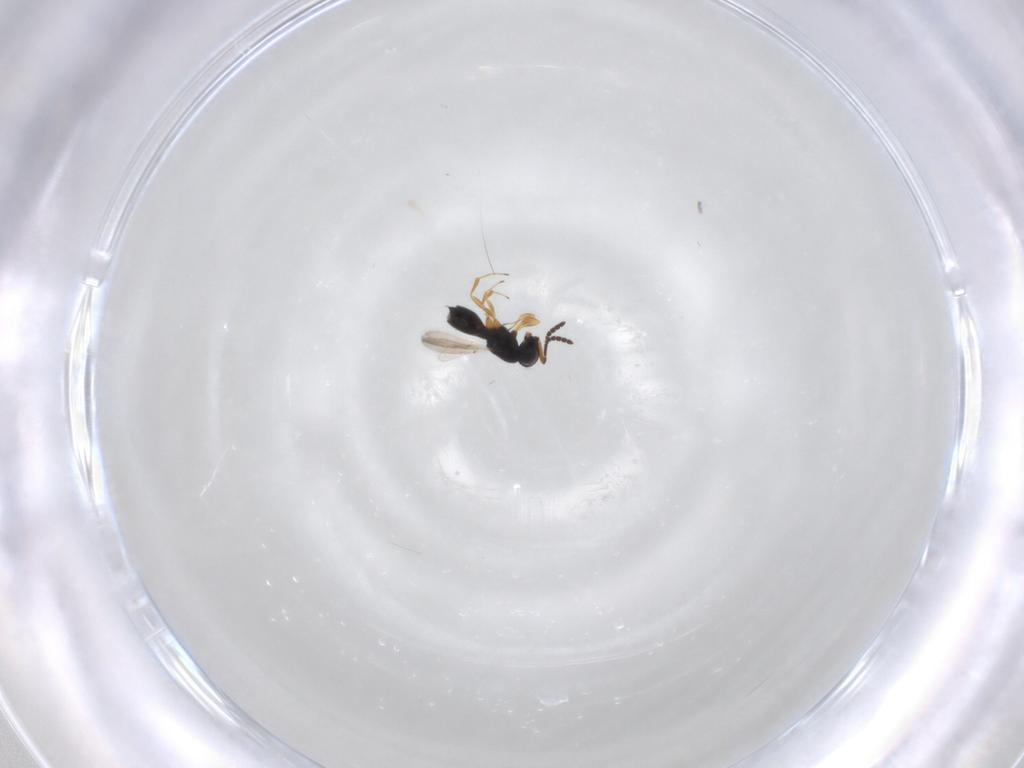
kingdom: Animalia
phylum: Arthropoda
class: Insecta
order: Hymenoptera
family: Scelionidae
